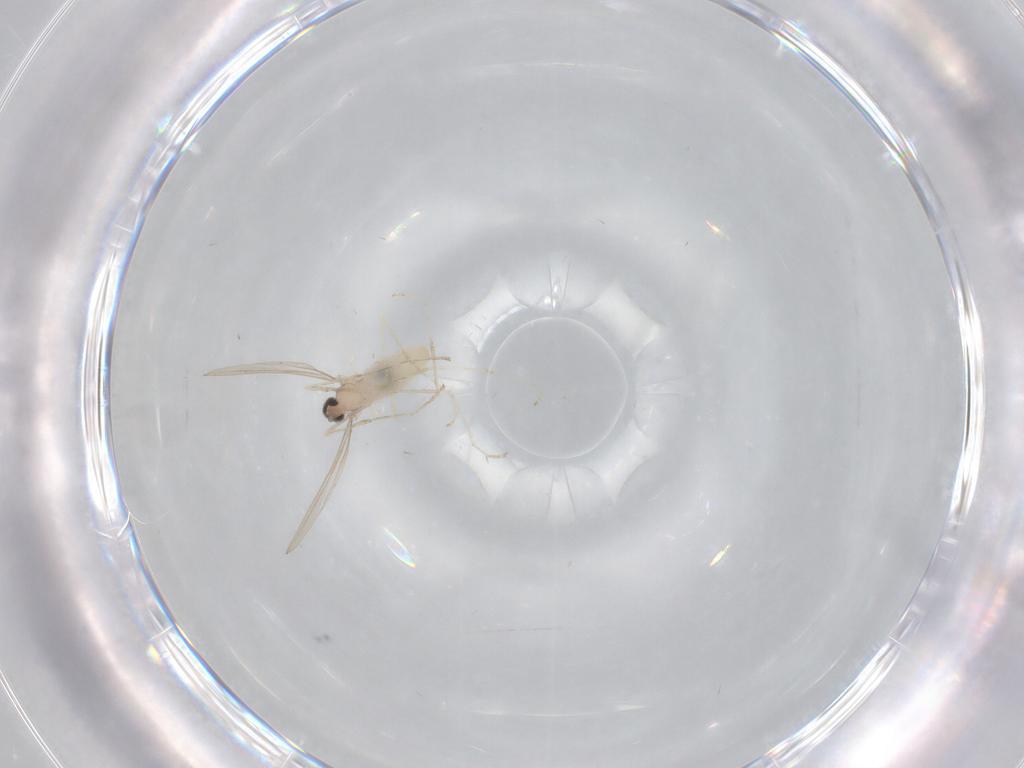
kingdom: Animalia
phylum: Arthropoda
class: Insecta
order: Diptera
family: Cecidomyiidae
